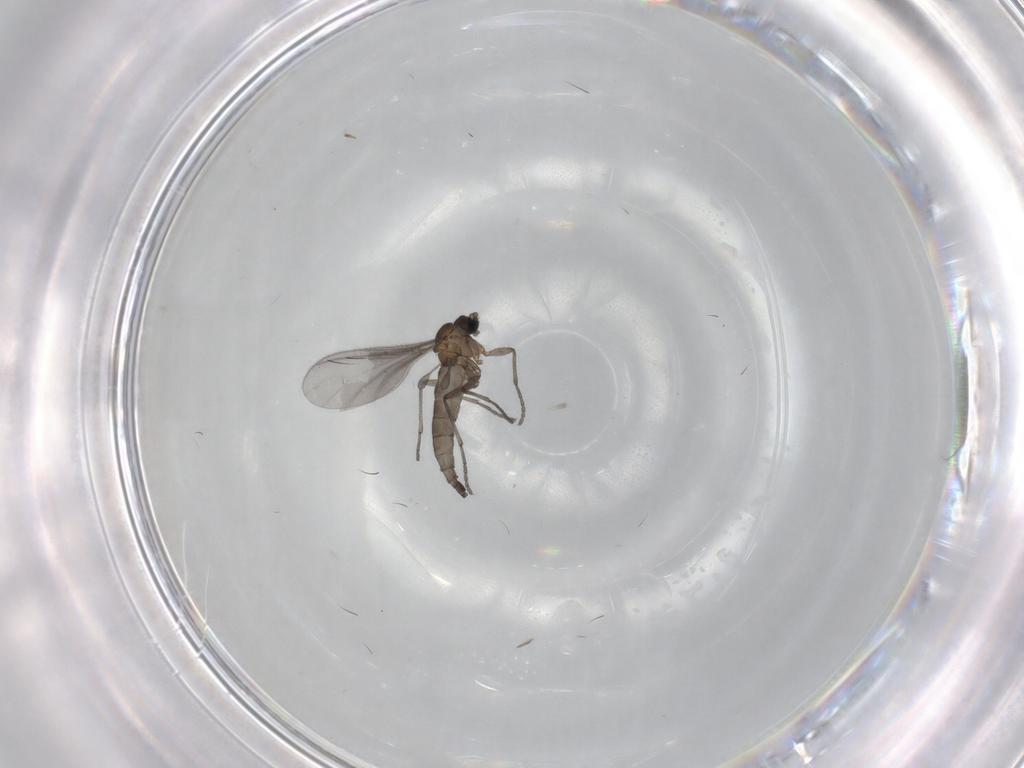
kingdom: Animalia
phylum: Arthropoda
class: Insecta
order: Diptera
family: Sciaridae
